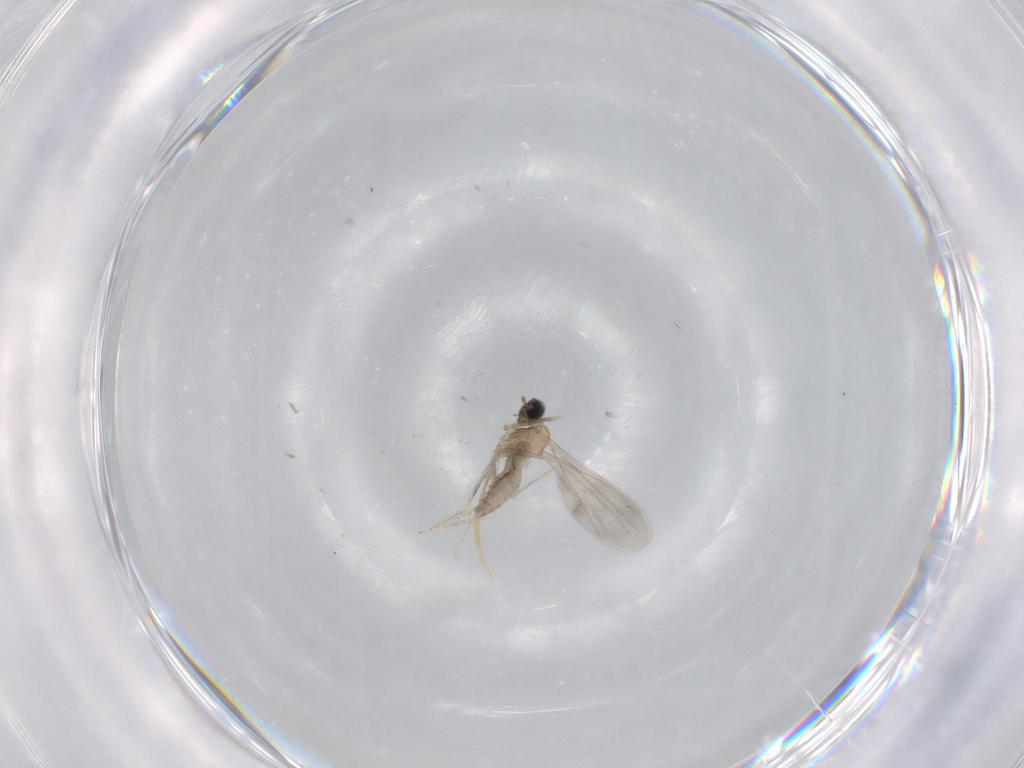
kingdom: Animalia
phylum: Arthropoda
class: Insecta
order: Diptera
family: Cecidomyiidae
